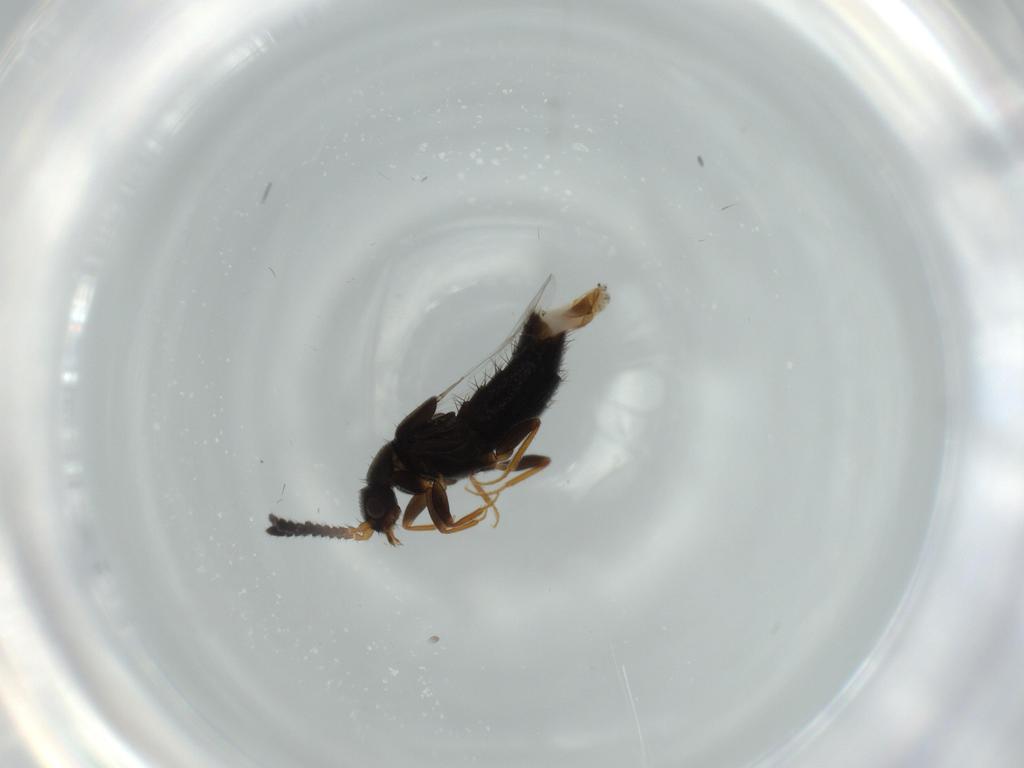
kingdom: Animalia
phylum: Arthropoda
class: Insecta
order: Coleoptera
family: Staphylinidae
